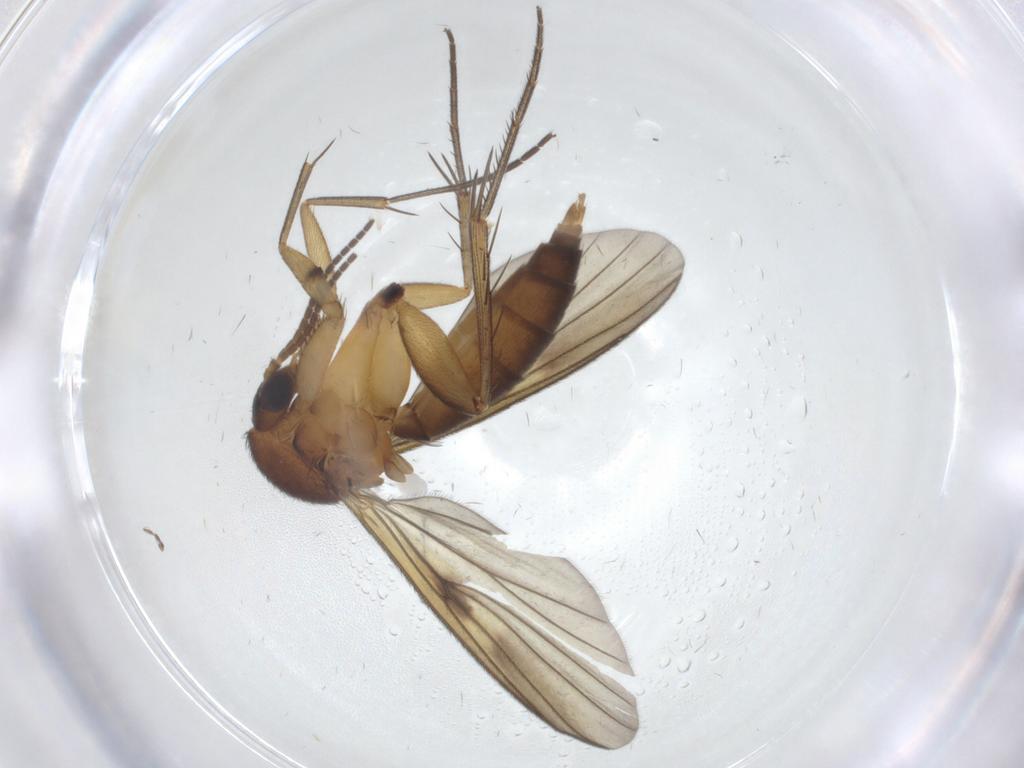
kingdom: Animalia
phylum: Arthropoda
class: Insecta
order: Diptera
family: Mycetophilidae
